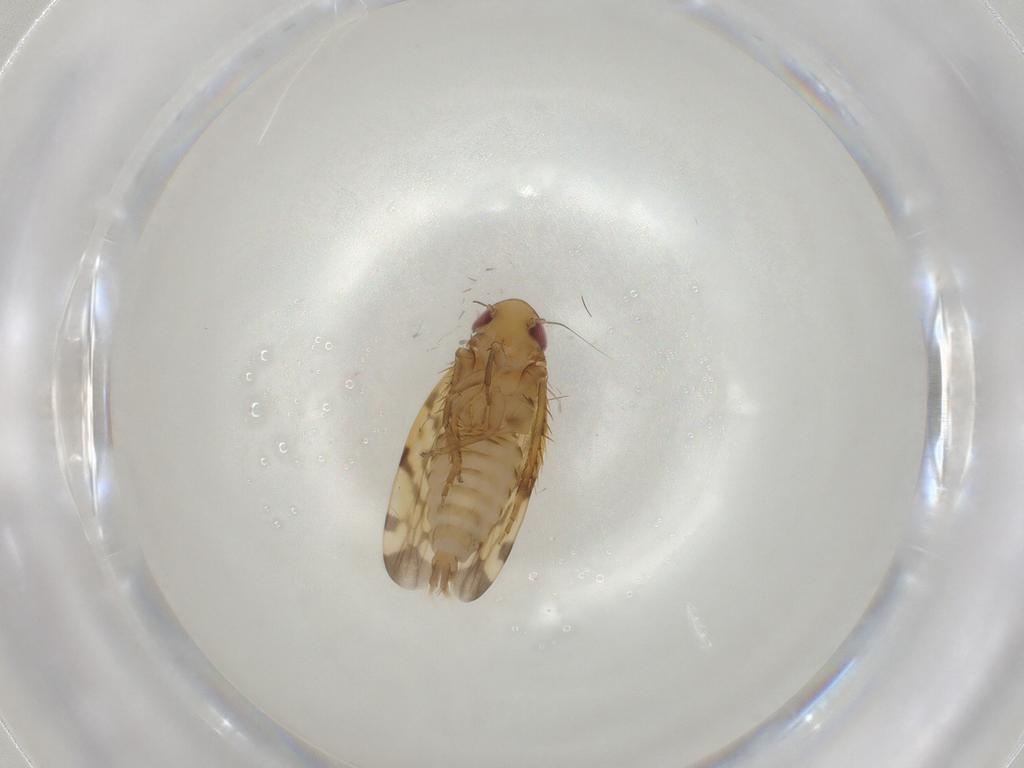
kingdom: Animalia
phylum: Arthropoda
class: Insecta
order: Hemiptera
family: Cicadellidae
